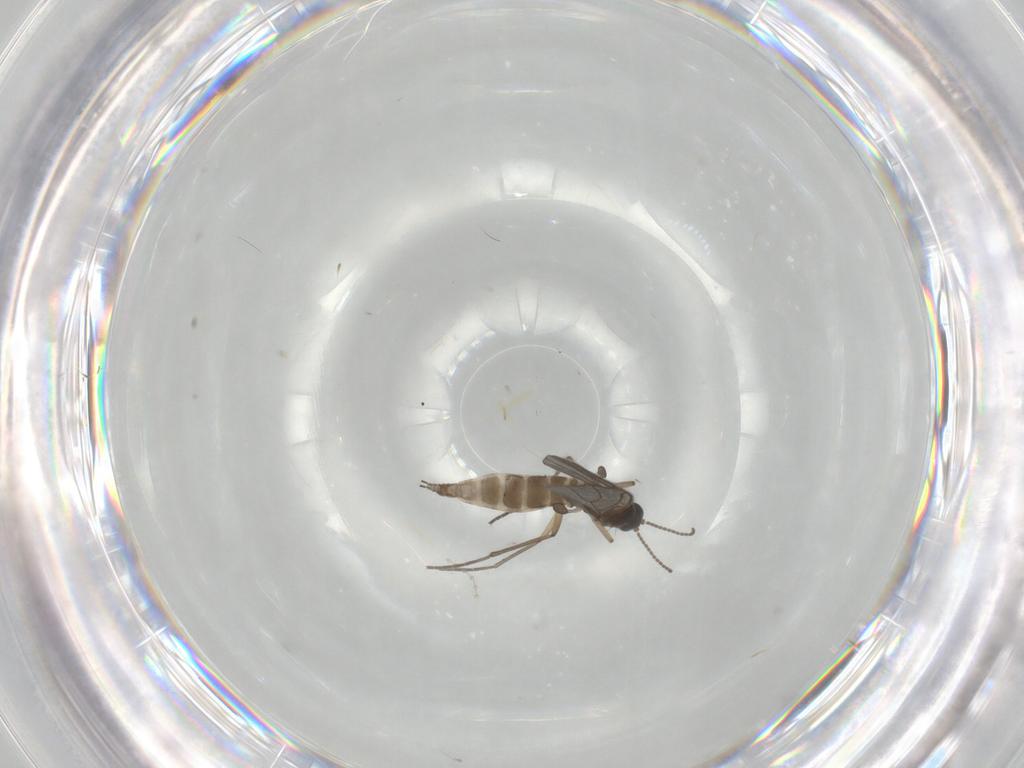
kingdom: Animalia
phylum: Arthropoda
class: Insecta
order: Diptera
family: Sciaridae
